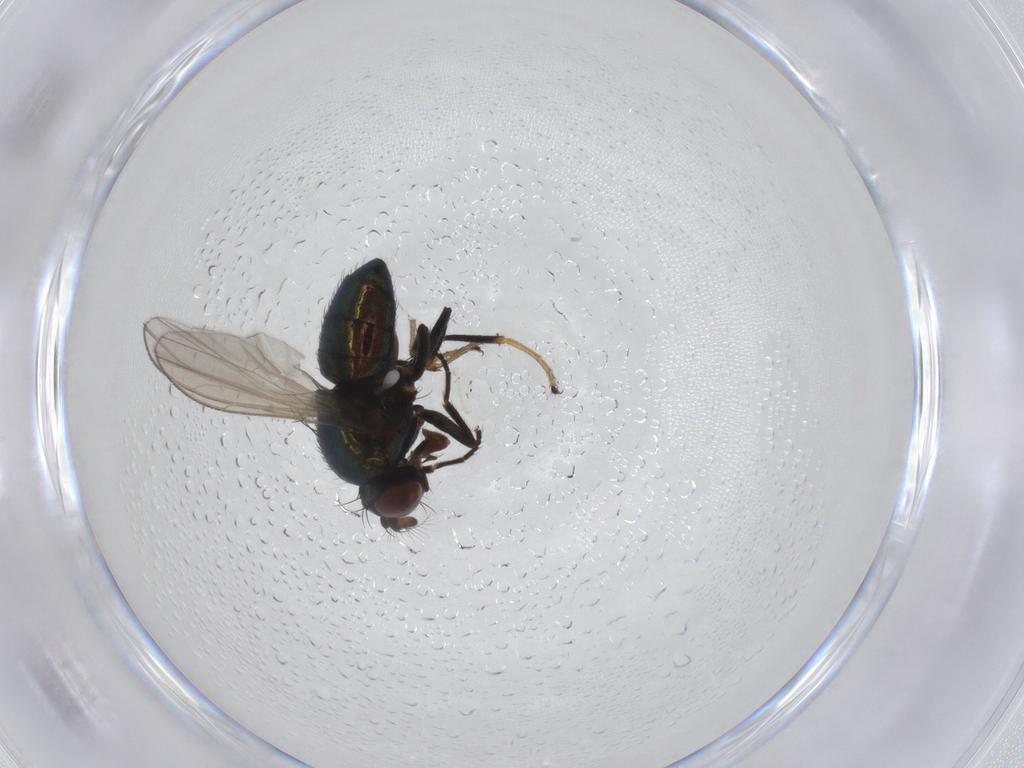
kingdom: Animalia
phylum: Arthropoda
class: Insecta
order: Diptera
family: Ephydridae
